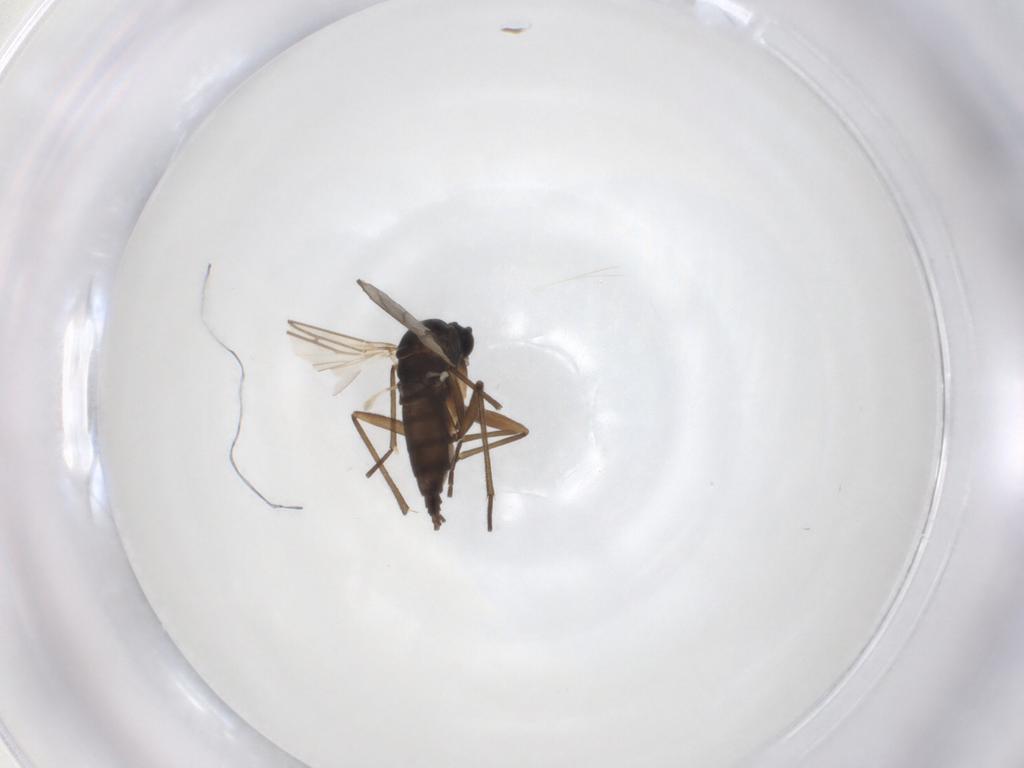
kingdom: Animalia
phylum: Arthropoda
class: Insecta
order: Diptera
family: Sciaridae
